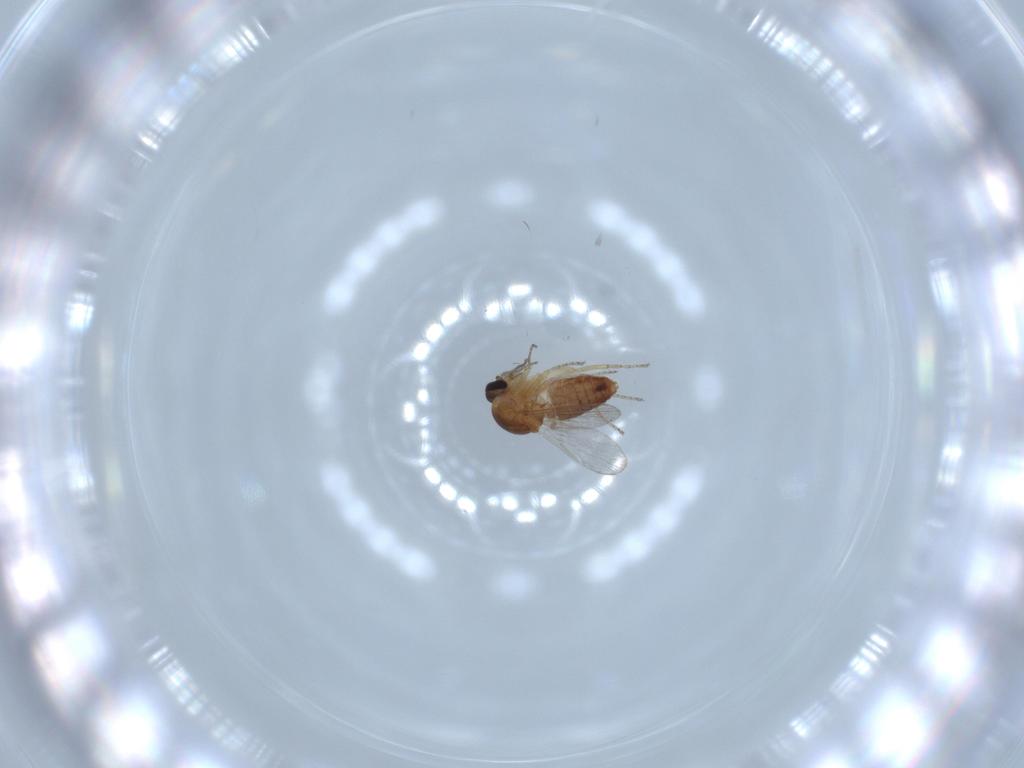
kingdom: Animalia
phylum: Arthropoda
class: Insecta
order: Diptera
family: Ceratopogonidae
